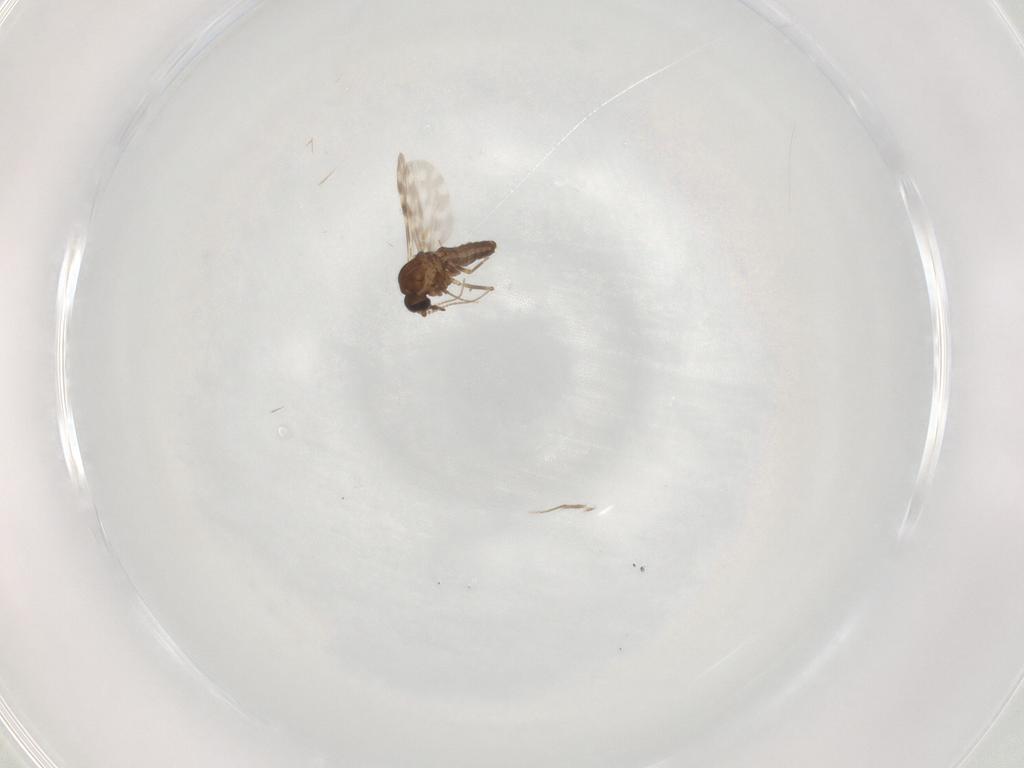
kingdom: Animalia
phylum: Arthropoda
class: Insecta
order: Diptera
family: Ceratopogonidae
